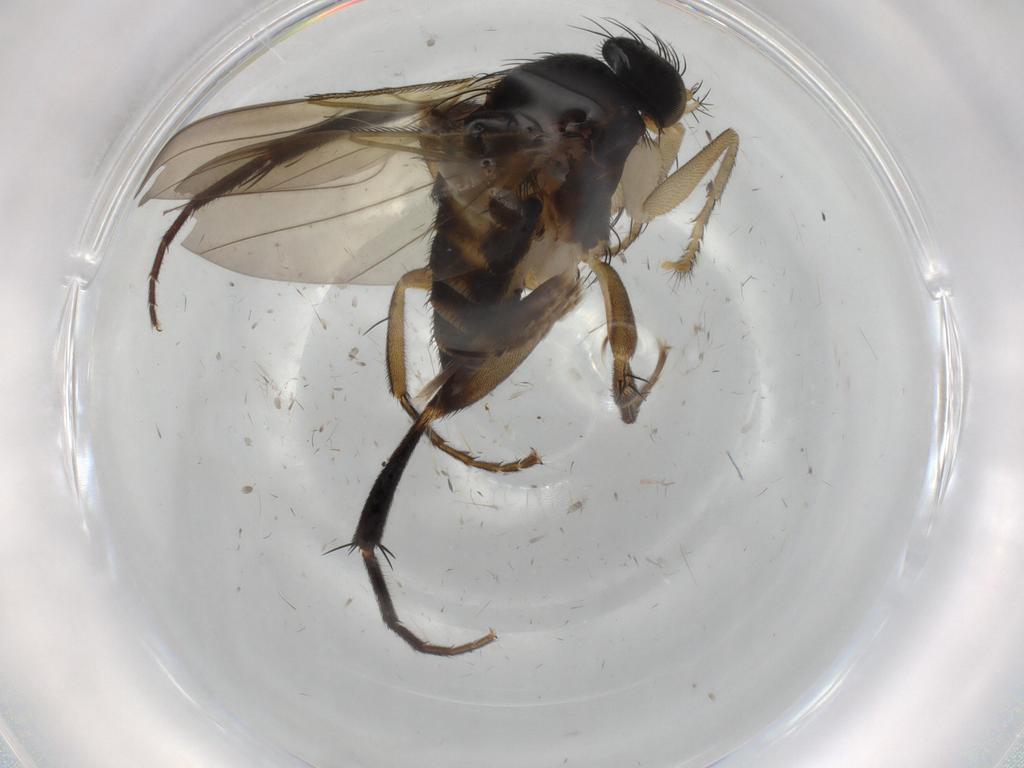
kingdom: Animalia
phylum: Arthropoda
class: Insecta
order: Diptera
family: Phoridae
